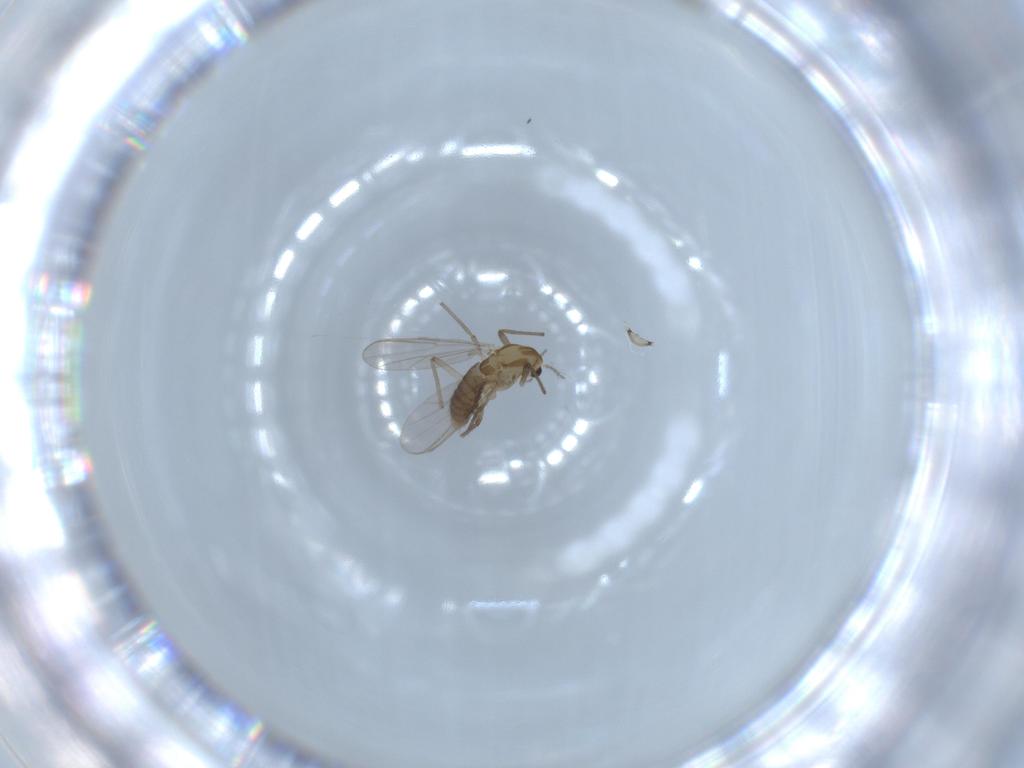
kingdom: Animalia
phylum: Arthropoda
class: Insecta
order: Diptera
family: Chironomidae
